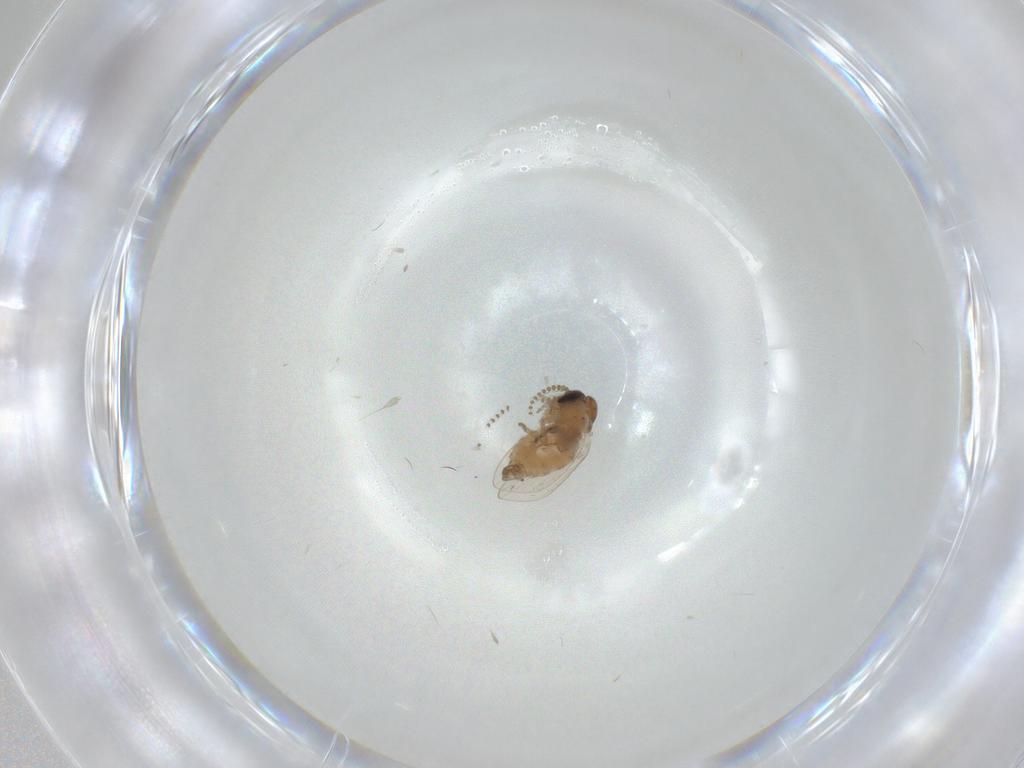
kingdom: Animalia
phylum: Arthropoda
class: Insecta
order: Diptera
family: Psychodidae
